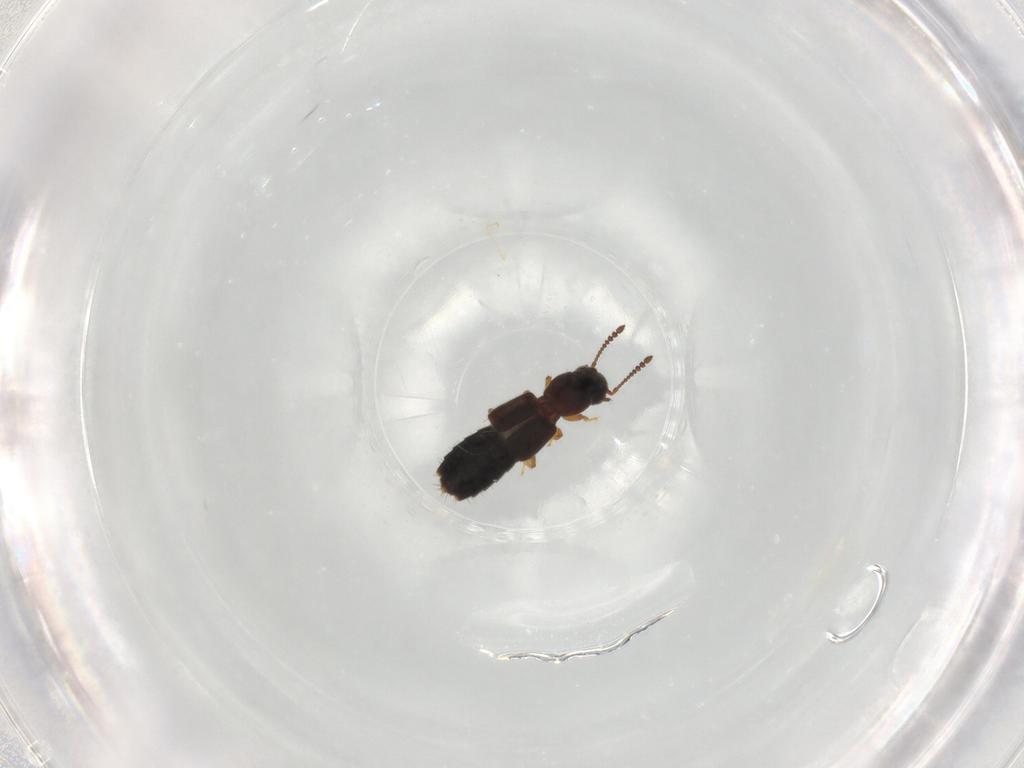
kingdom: Animalia
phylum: Arthropoda
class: Insecta
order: Coleoptera
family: Staphylinidae
